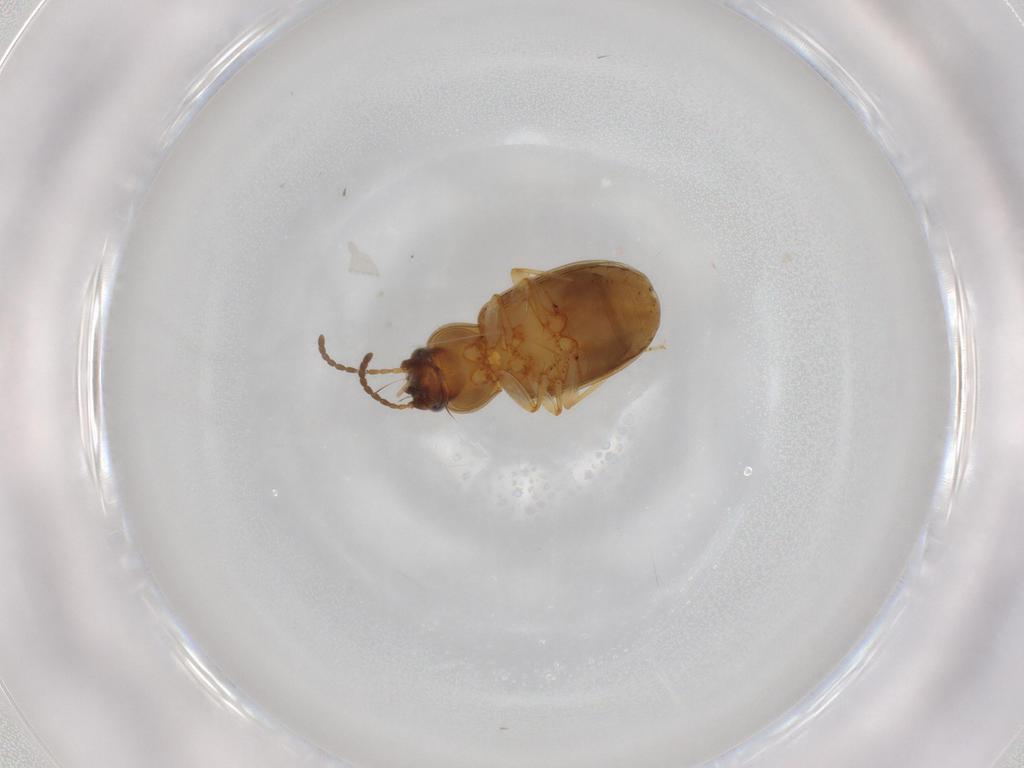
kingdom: Animalia
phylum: Arthropoda
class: Insecta
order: Coleoptera
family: Carabidae
